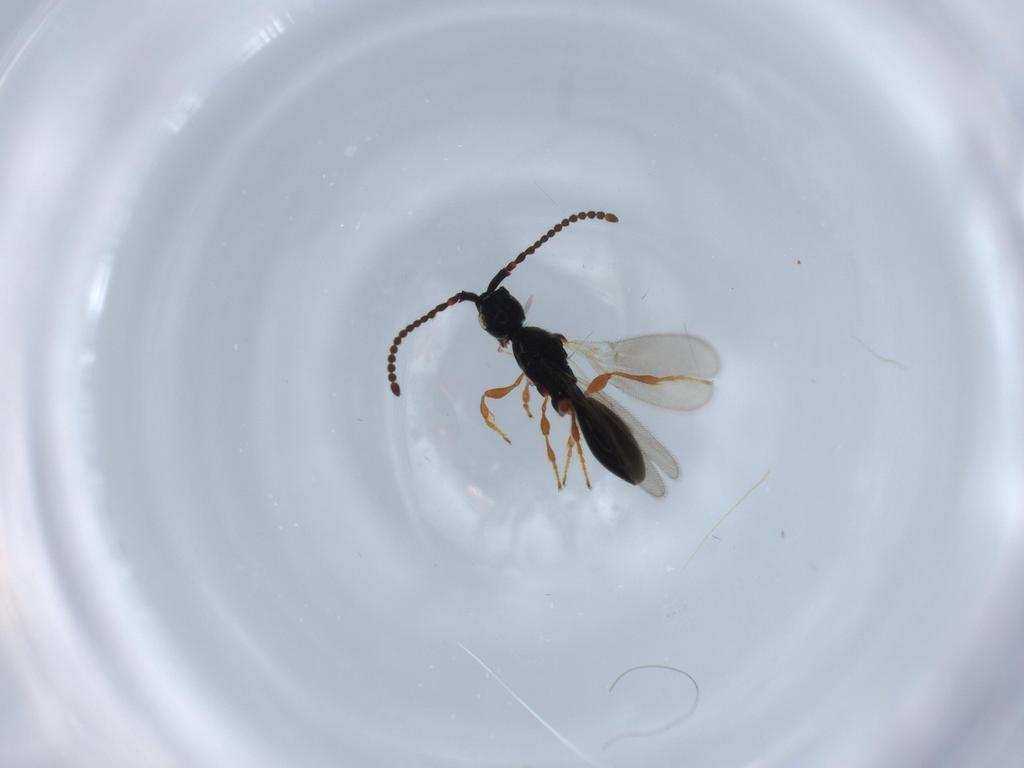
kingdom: Animalia
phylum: Arthropoda
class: Insecta
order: Hymenoptera
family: Diapriidae
